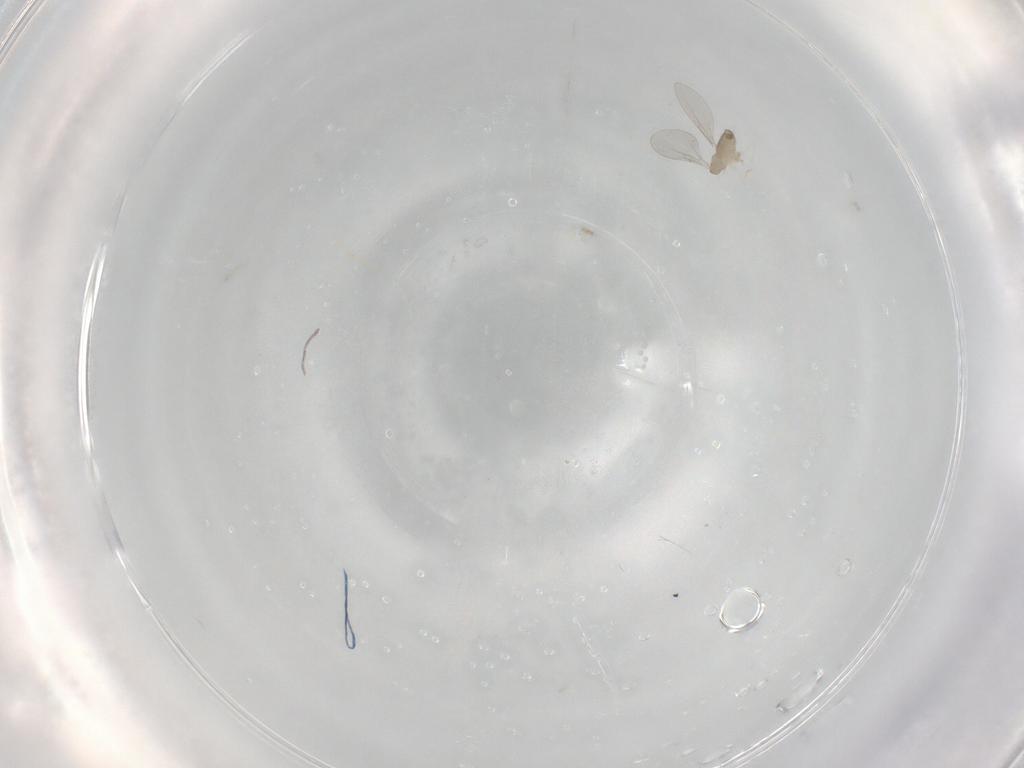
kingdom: Animalia
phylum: Arthropoda
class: Insecta
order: Diptera
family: Cecidomyiidae
